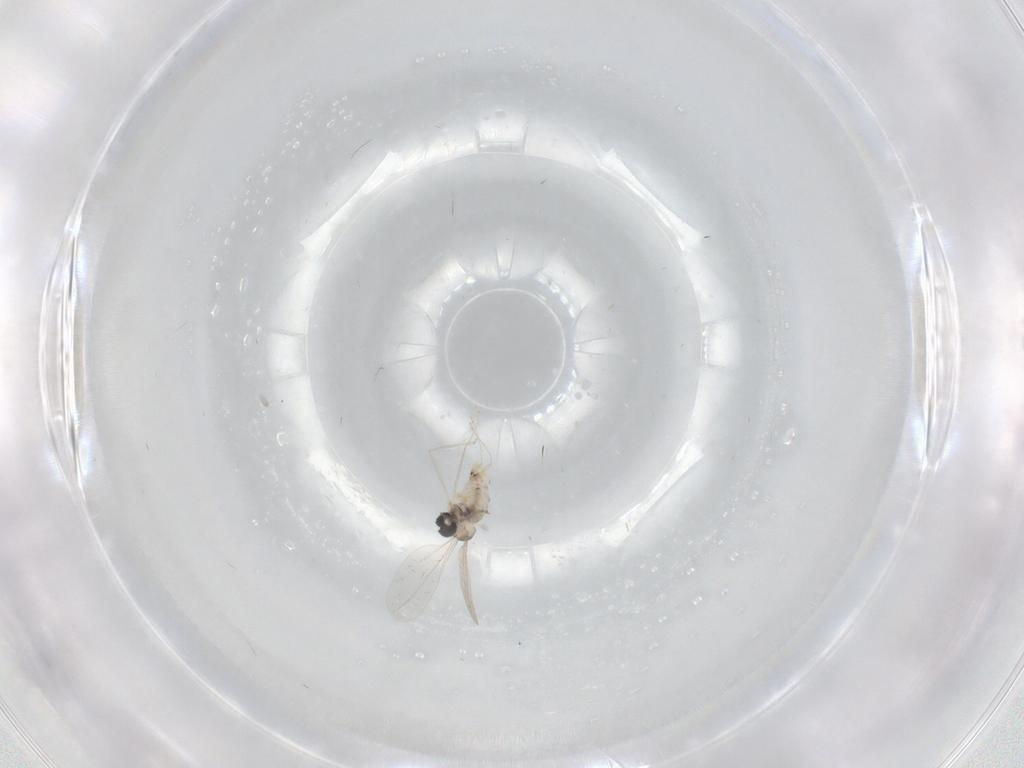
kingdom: Animalia
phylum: Arthropoda
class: Insecta
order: Diptera
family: Cecidomyiidae
